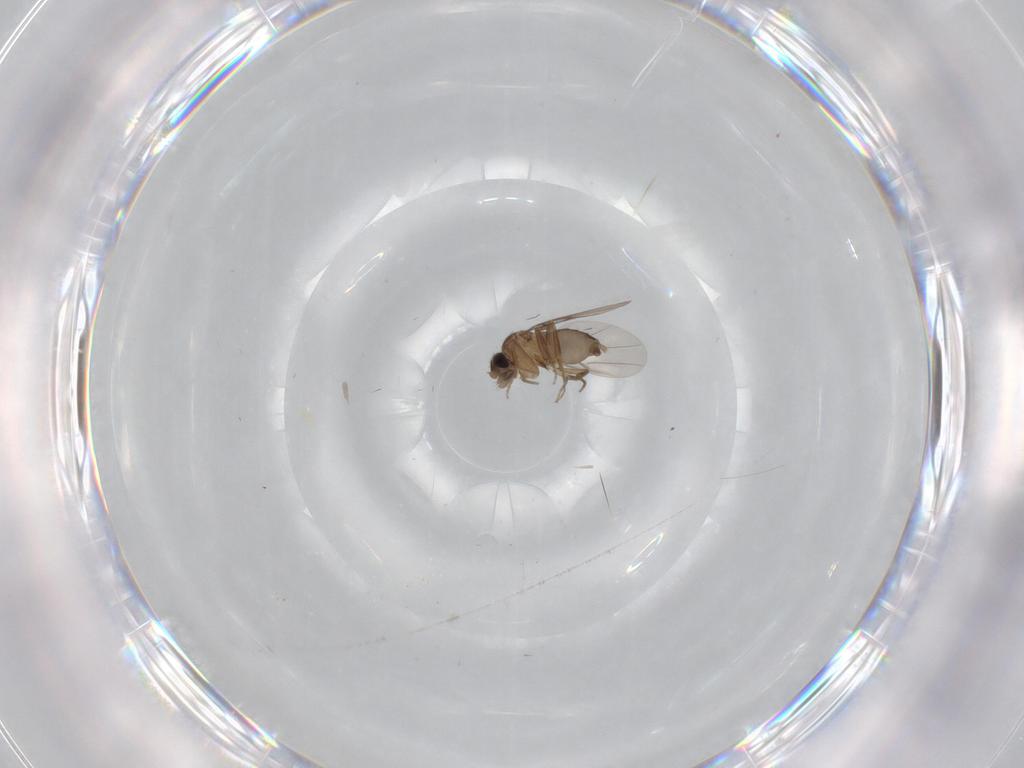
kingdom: Animalia
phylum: Arthropoda
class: Insecta
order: Diptera
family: Phoridae
